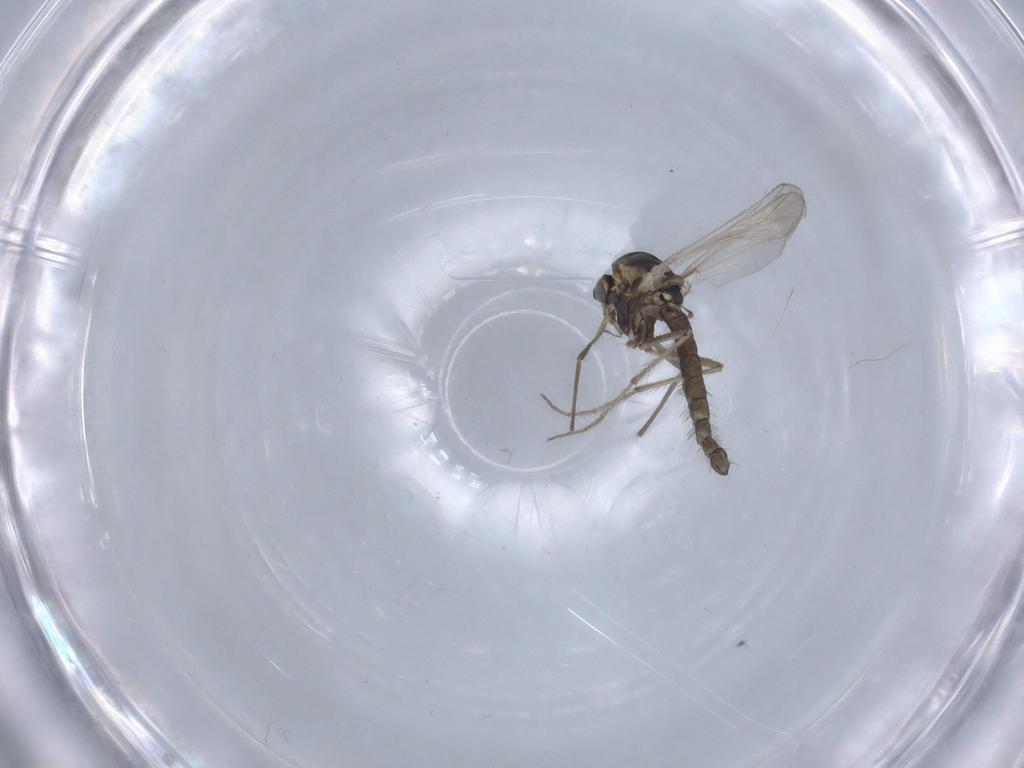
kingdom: Animalia
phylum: Arthropoda
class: Insecta
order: Diptera
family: Chironomidae
